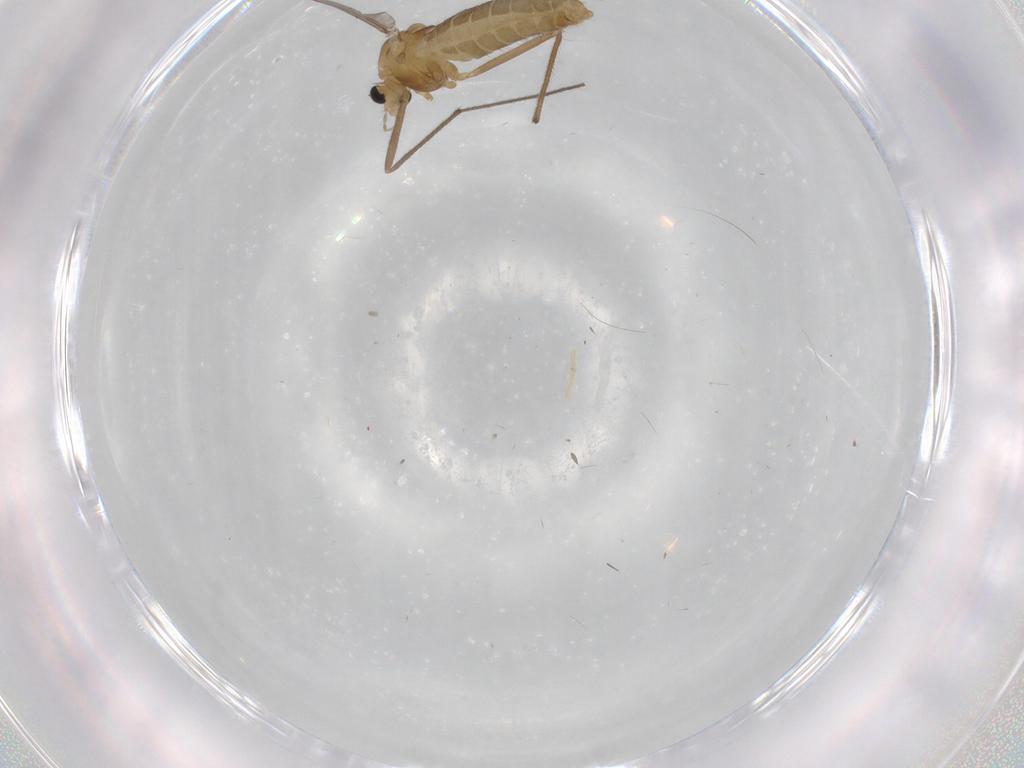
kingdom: Animalia
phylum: Arthropoda
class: Insecta
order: Diptera
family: Chironomidae
